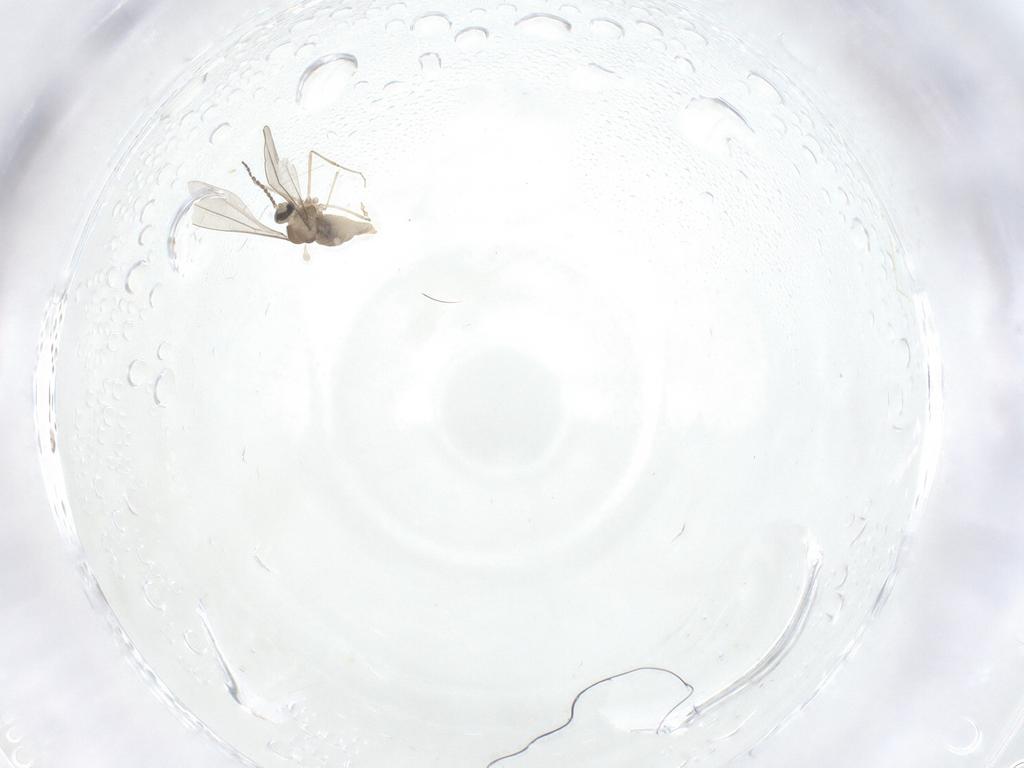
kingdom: Animalia
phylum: Arthropoda
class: Insecta
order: Diptera
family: Cecidomyiidae
